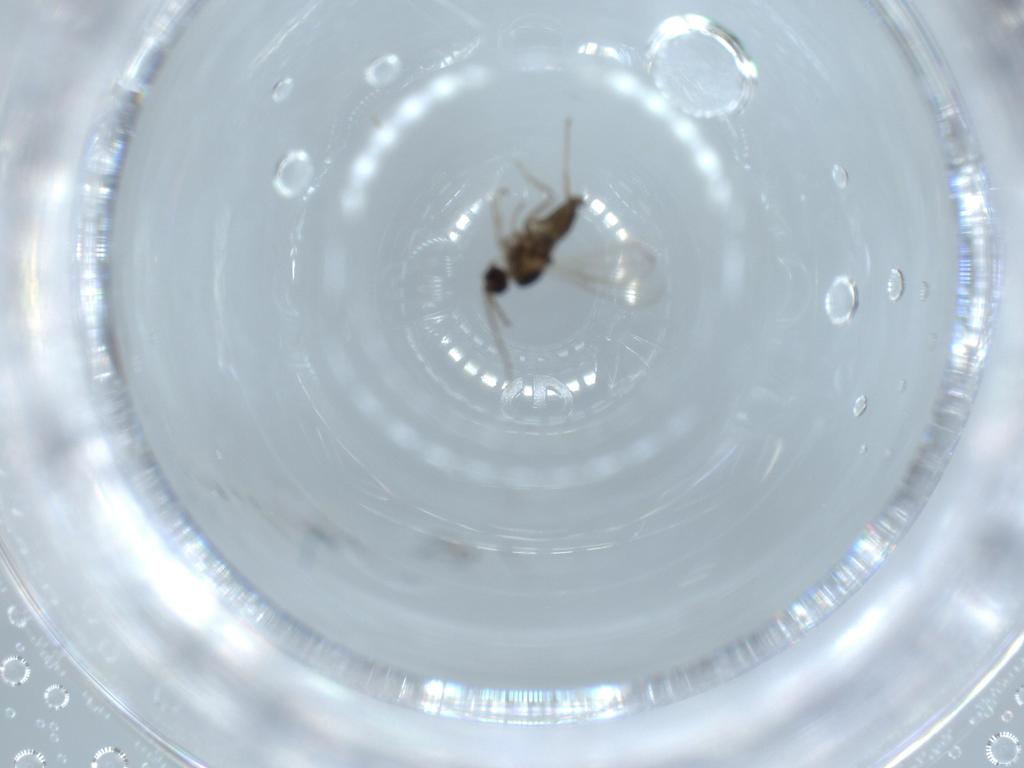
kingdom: Animalia
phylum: Arthropoda
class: Insecta
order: Diptera
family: Cecidomyiidae
